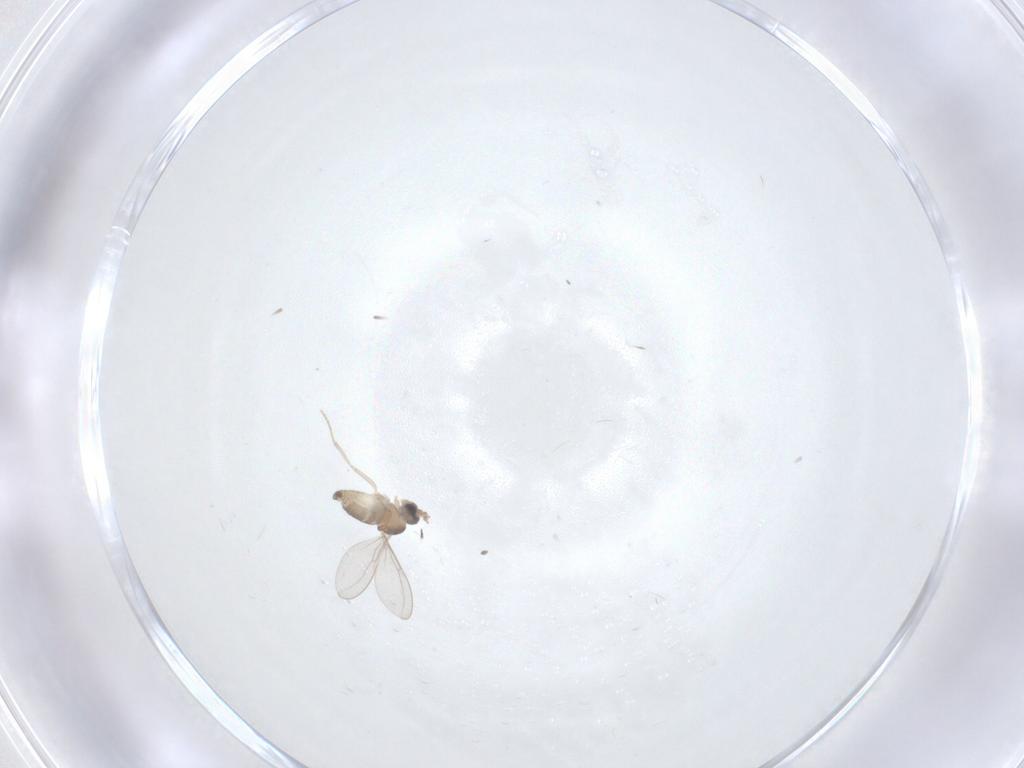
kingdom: Animalia
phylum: Arthropoda
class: Insecta
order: Diptera
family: Cecidomyiidae
